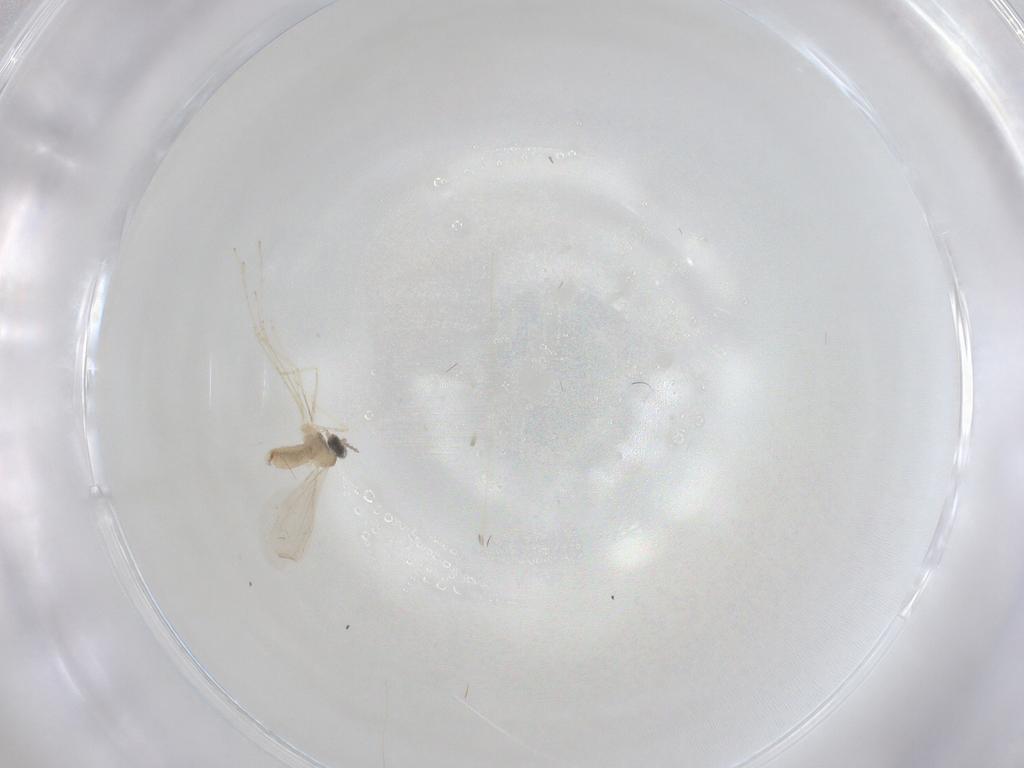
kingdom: Animalia
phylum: Arthropoda
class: Insecta
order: Diptera
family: Cecidomyiidae
